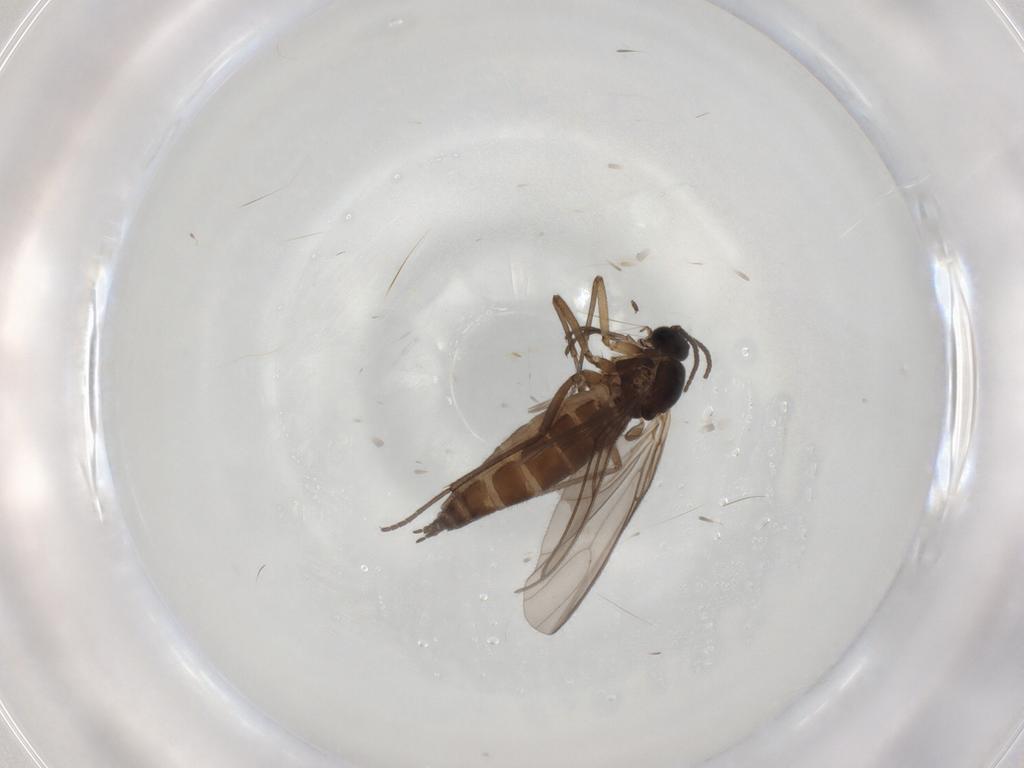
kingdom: Animalia
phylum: Arthropoda
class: Insecta
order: Diptera
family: Sciaridae
